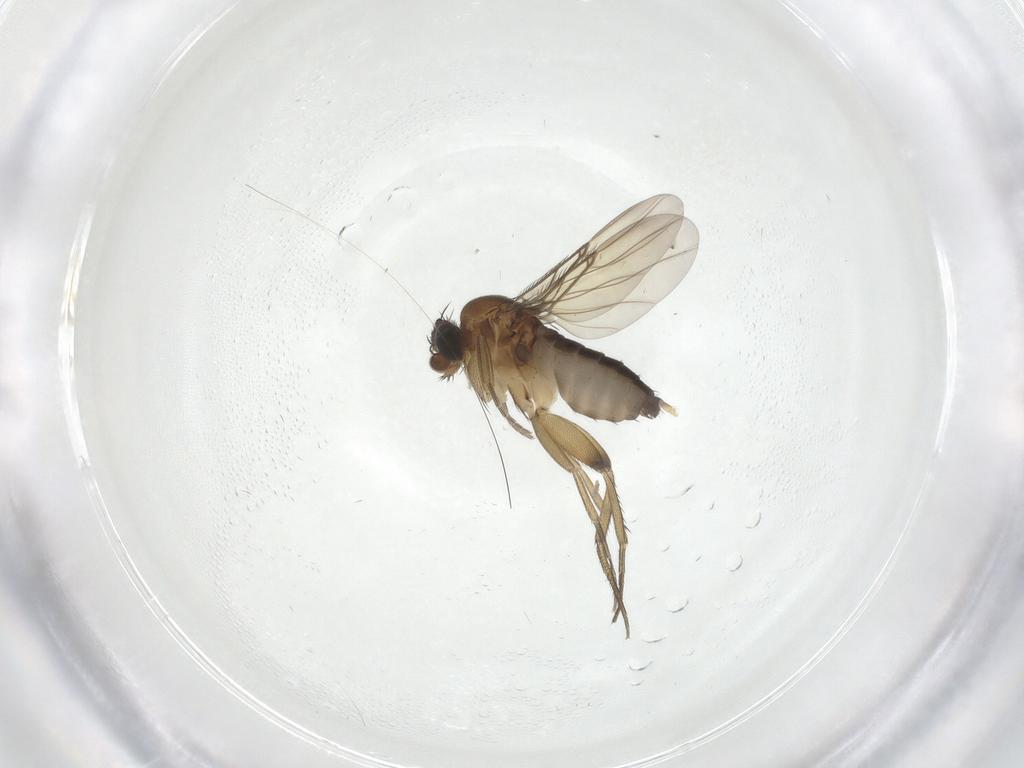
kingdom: Animalia
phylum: Arthropoda
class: Insecta
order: Diptera
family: Phoridae
